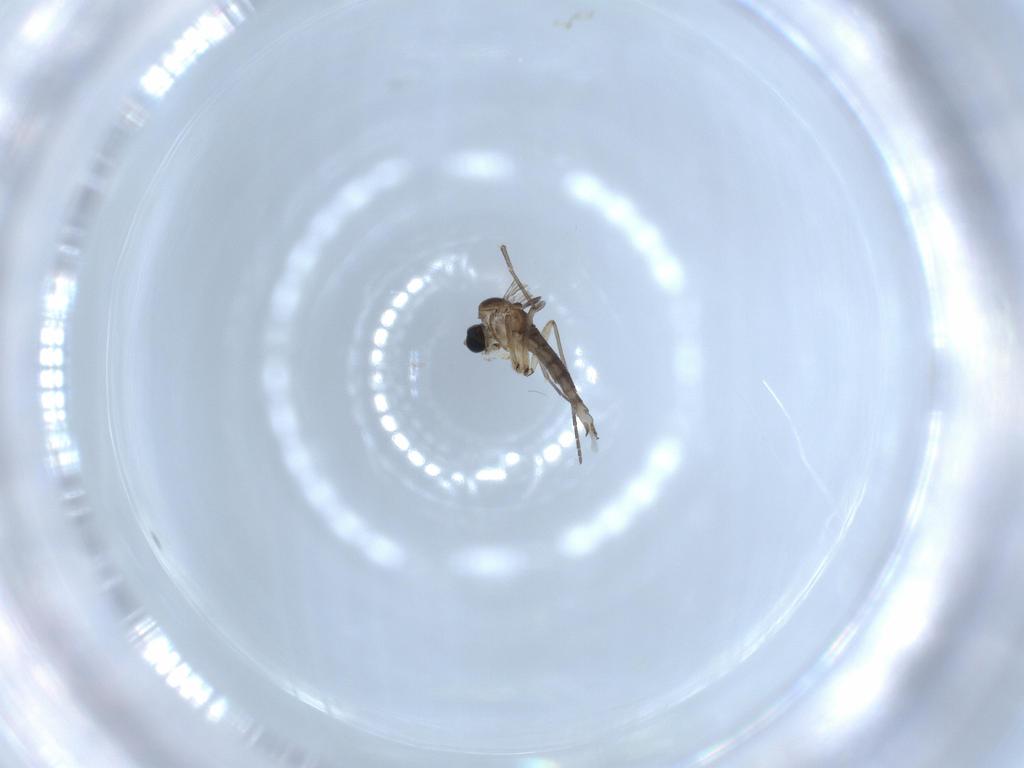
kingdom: Animalia
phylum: Arthropoda
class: Insecta
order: Diptera
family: Sciaridae
